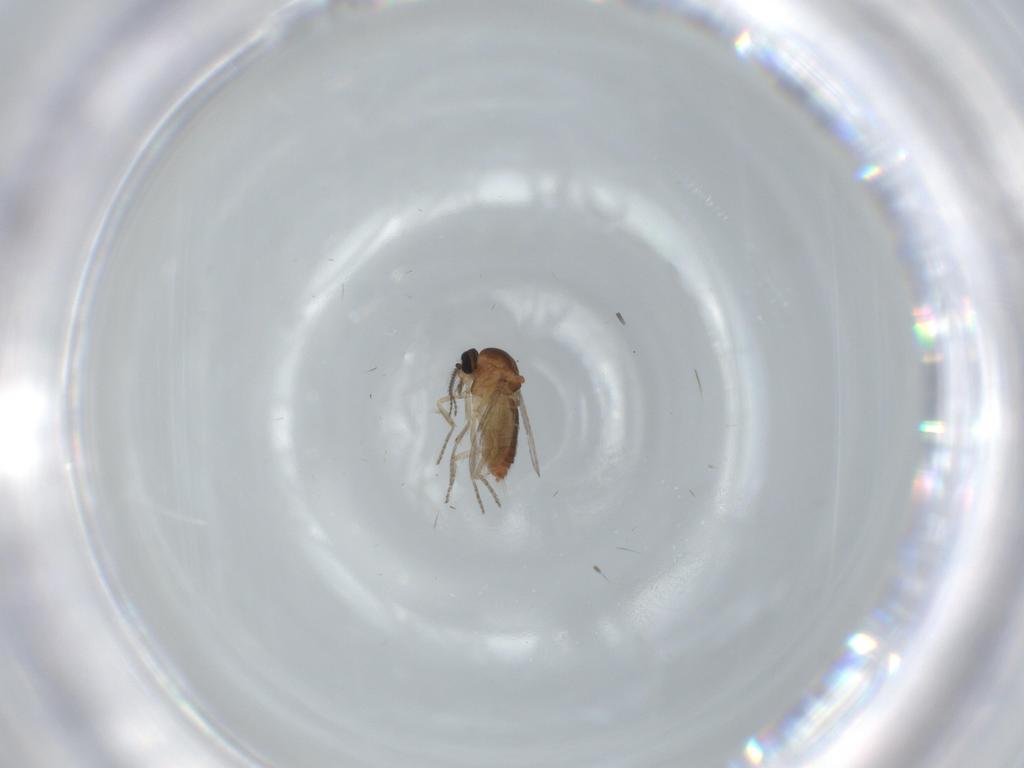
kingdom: Animalia
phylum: Arthropoda
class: Insecta
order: Diptera
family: Ceratopogonidae
